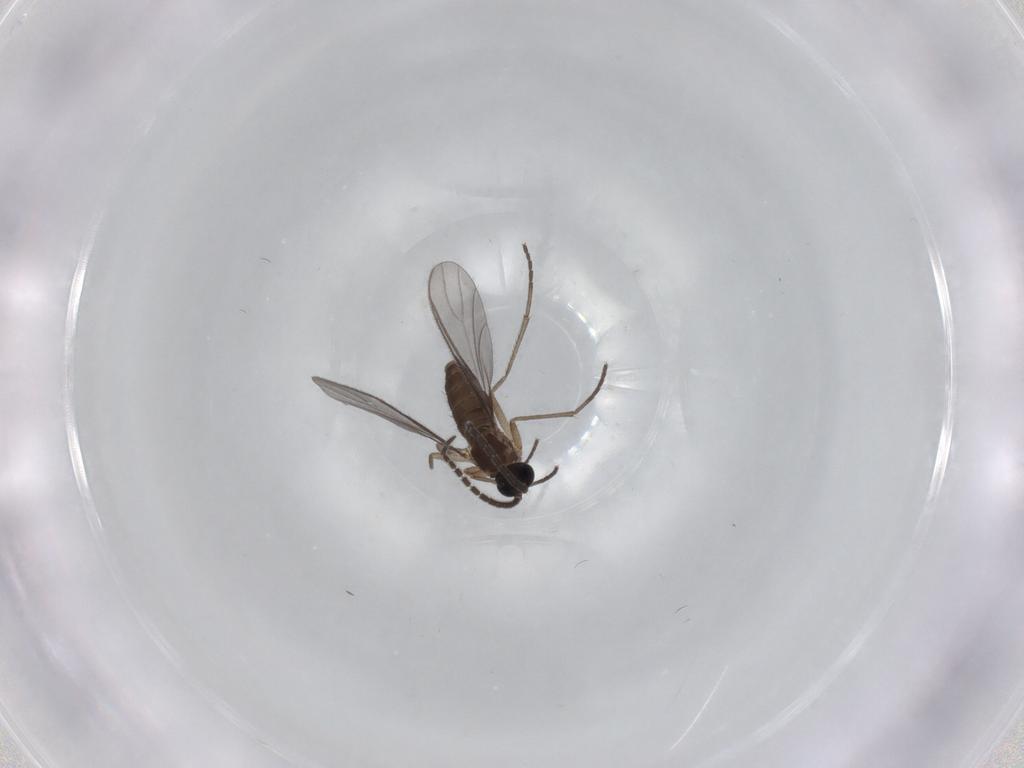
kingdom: Animalia
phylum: Arthropoda
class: Insecta
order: Diptera
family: Sciaridae
